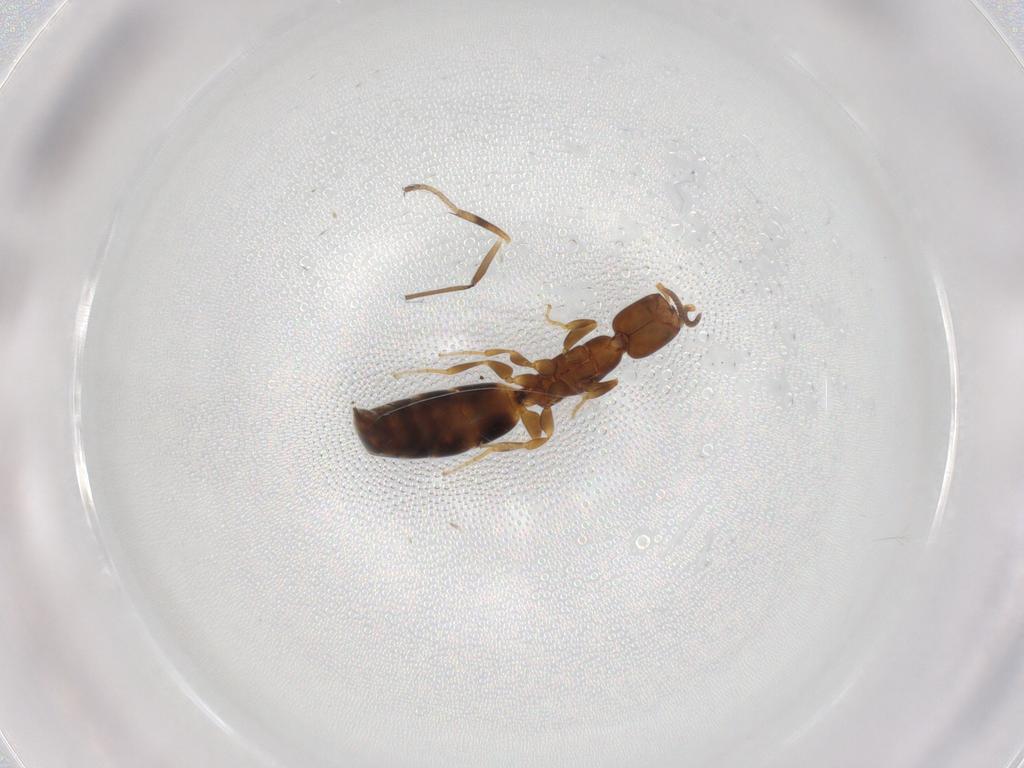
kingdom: Animalia
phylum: Arthropoda
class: Insecta
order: Hymenoptera
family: Bethylidae
